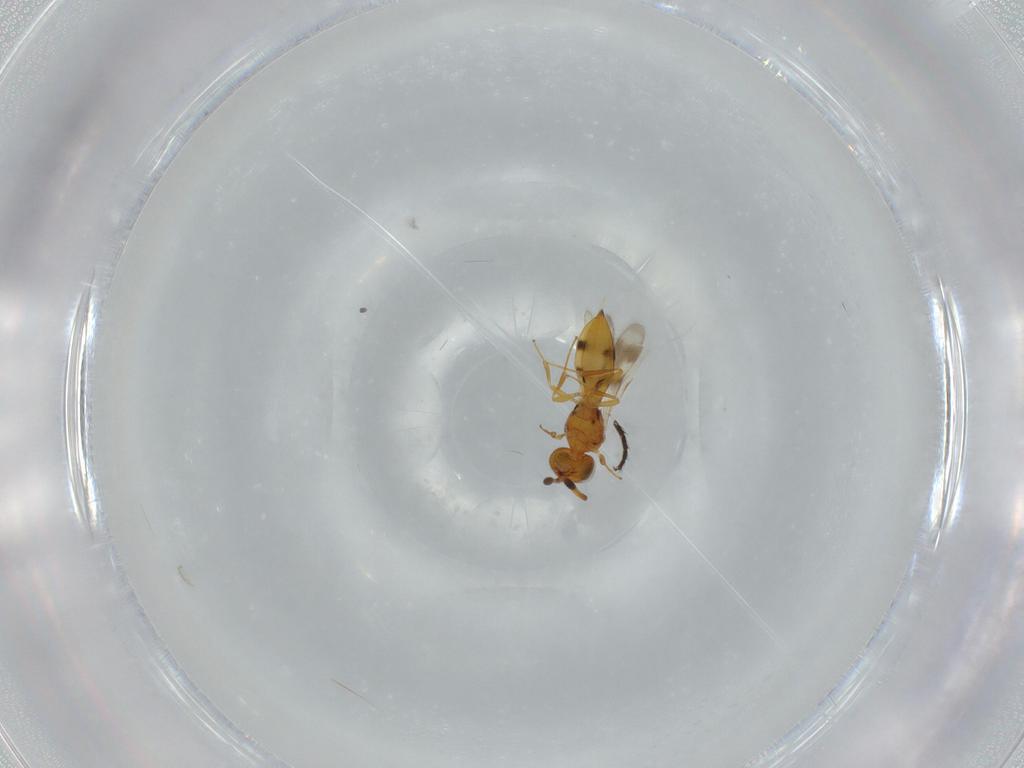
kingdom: Animalia
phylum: Arthropoda
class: Insecta
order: Hymenoptera
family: Scelionidae
